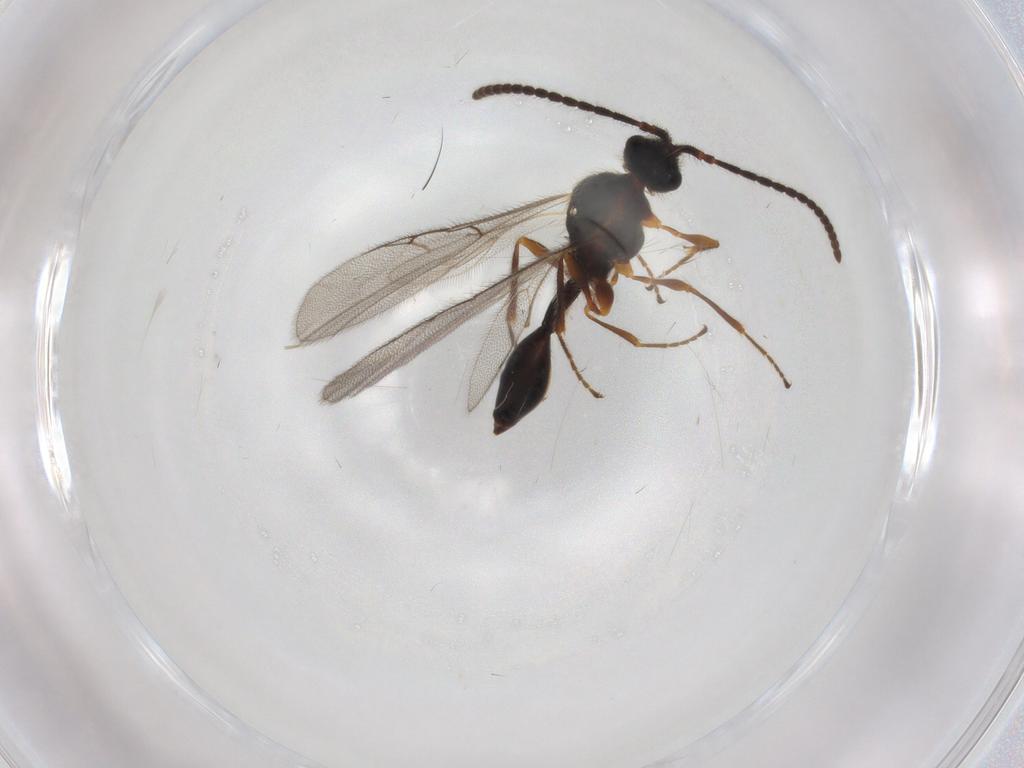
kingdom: Animalia
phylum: Arthropoda
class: Insecta
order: Hymenoptera
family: Diapriidae
